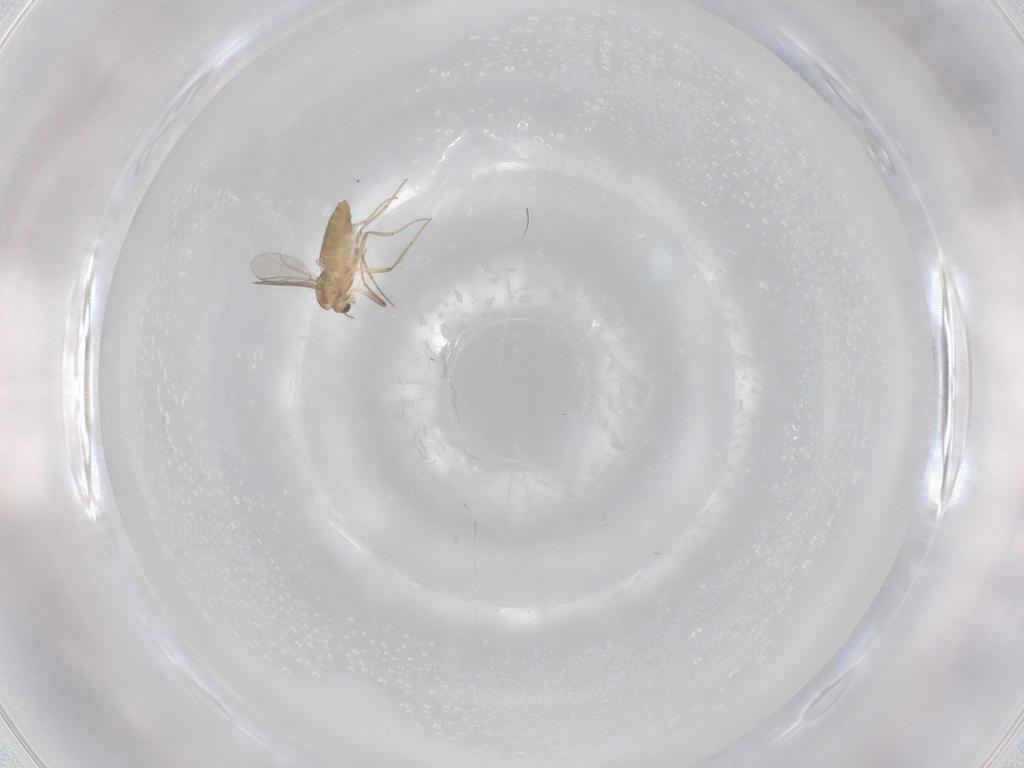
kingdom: Animalia
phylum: Arthropoda
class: Insecta
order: Diptera
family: Chironomidae
